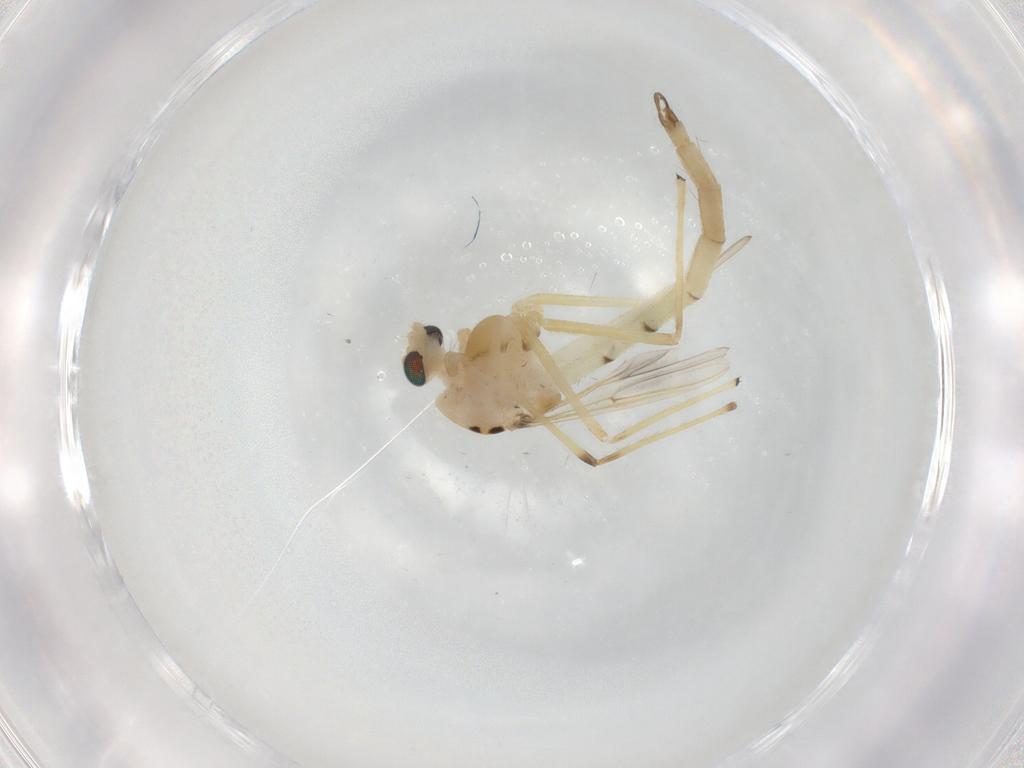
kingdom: Animalia
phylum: Arthropoda
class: Insecta
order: Diptera
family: Chironomidae
